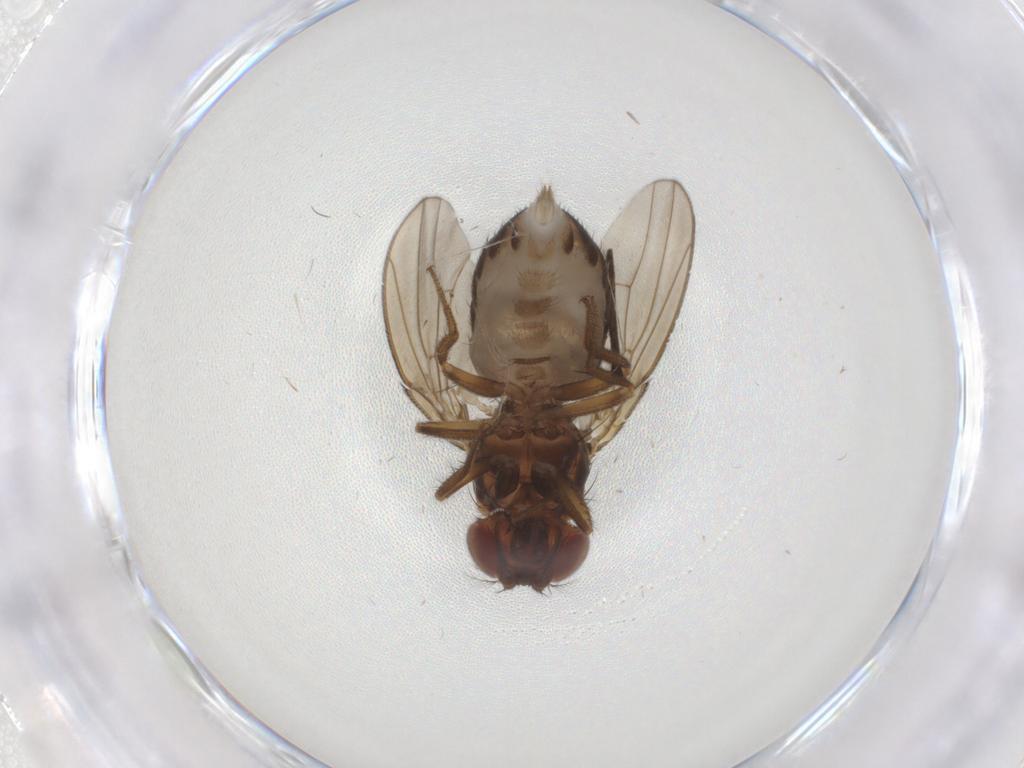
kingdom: Animalia
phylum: Arthropoda
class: Insecta
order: Diptera
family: Limoniidae
